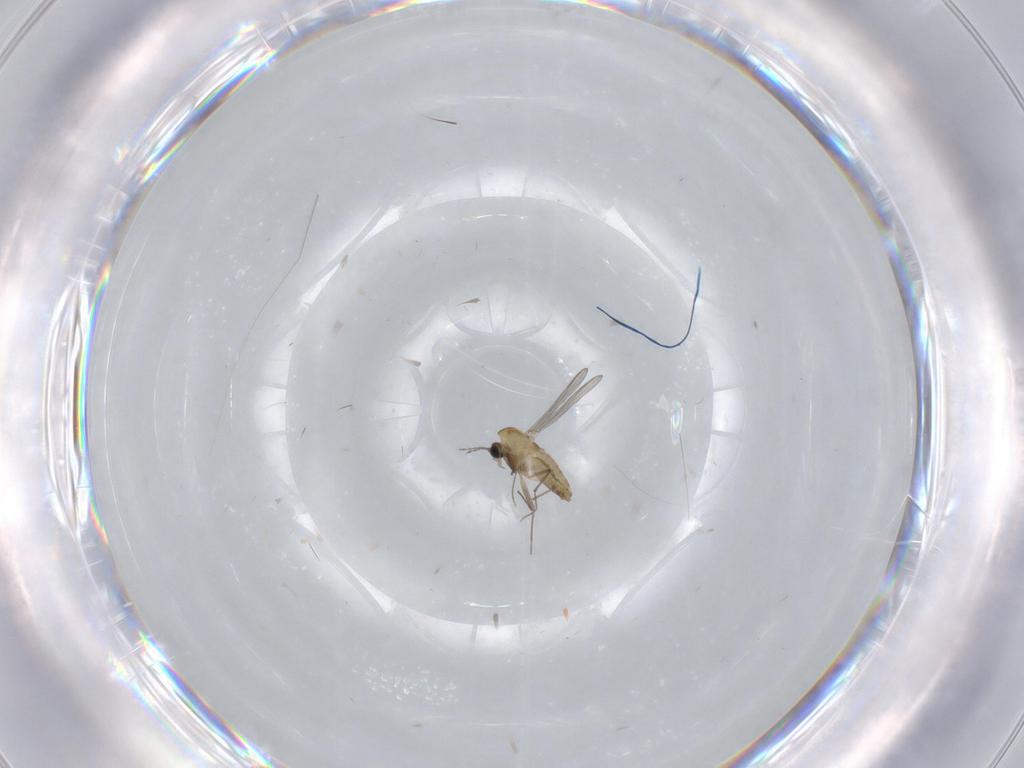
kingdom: Animalia
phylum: Arthropoda
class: Insecta
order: Diptera
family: Chironomidae
